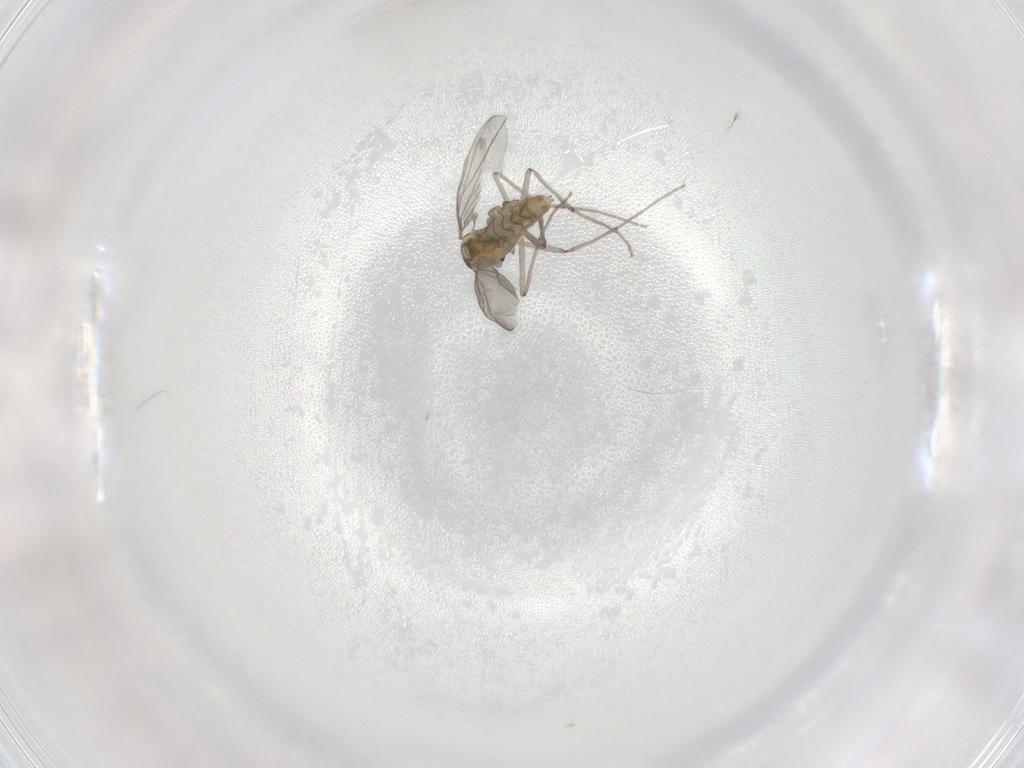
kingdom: Animalia
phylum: Arthropoda
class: Insecta
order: Diptera
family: Chironomidae
